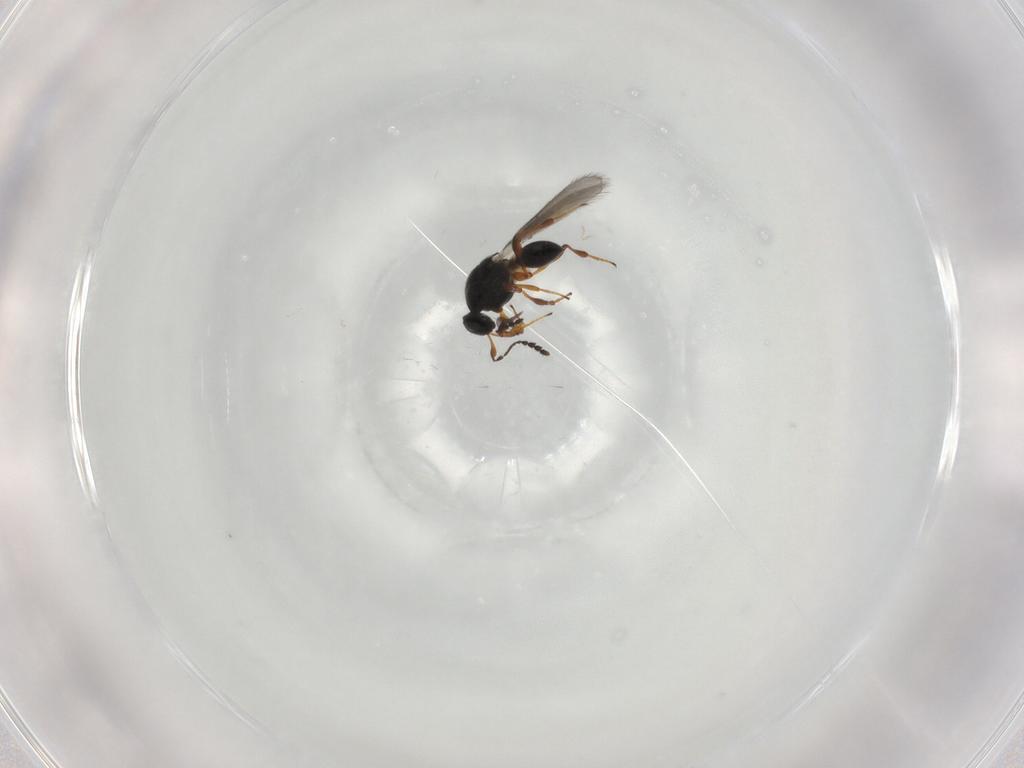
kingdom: Animalia
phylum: Arthropoda
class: Insecta
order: Hymenoptera
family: Platygastridae
